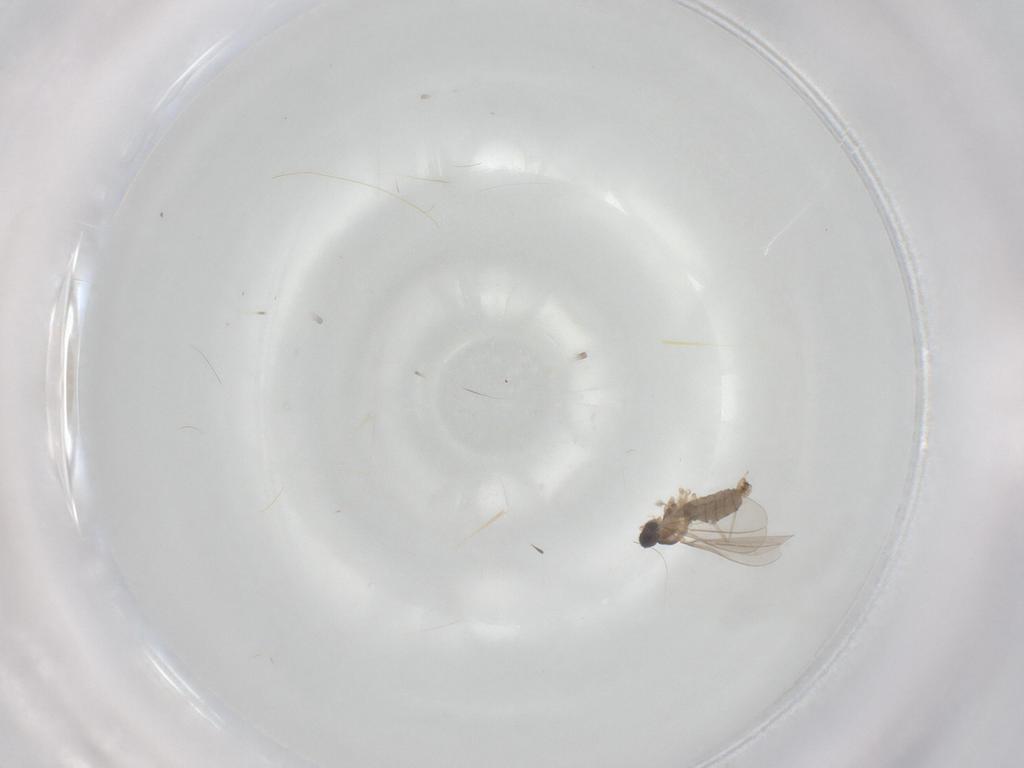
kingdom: Animalia
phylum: Arthropoda
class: Insecta
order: Diptera
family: Cecidomyiidae
